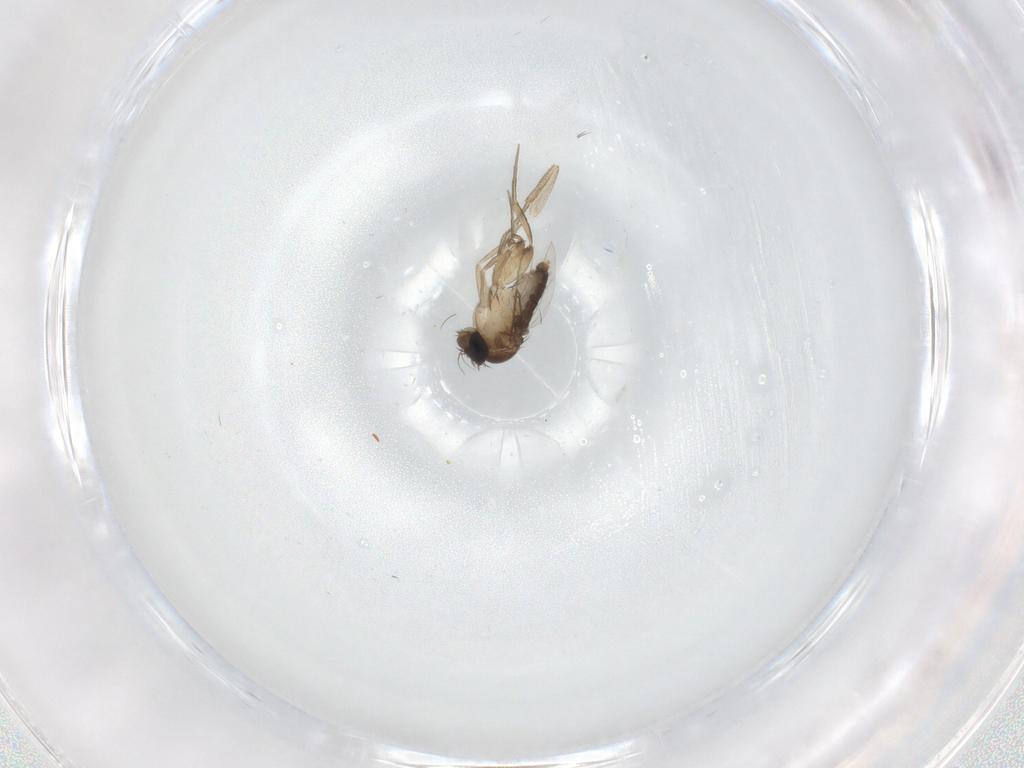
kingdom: Animalia
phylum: Arthropoda
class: Insecta
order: Diptera
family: Phoridae
